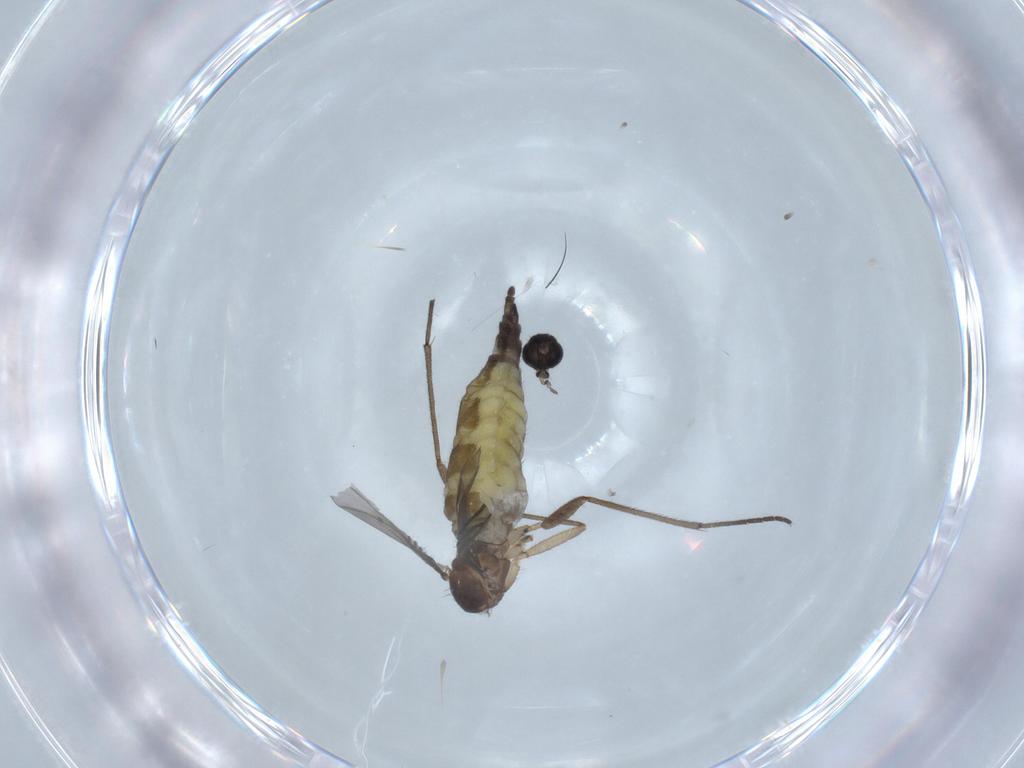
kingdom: Animalia
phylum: Arthropoda
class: Insecta
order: Diptera
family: Sciaridae
